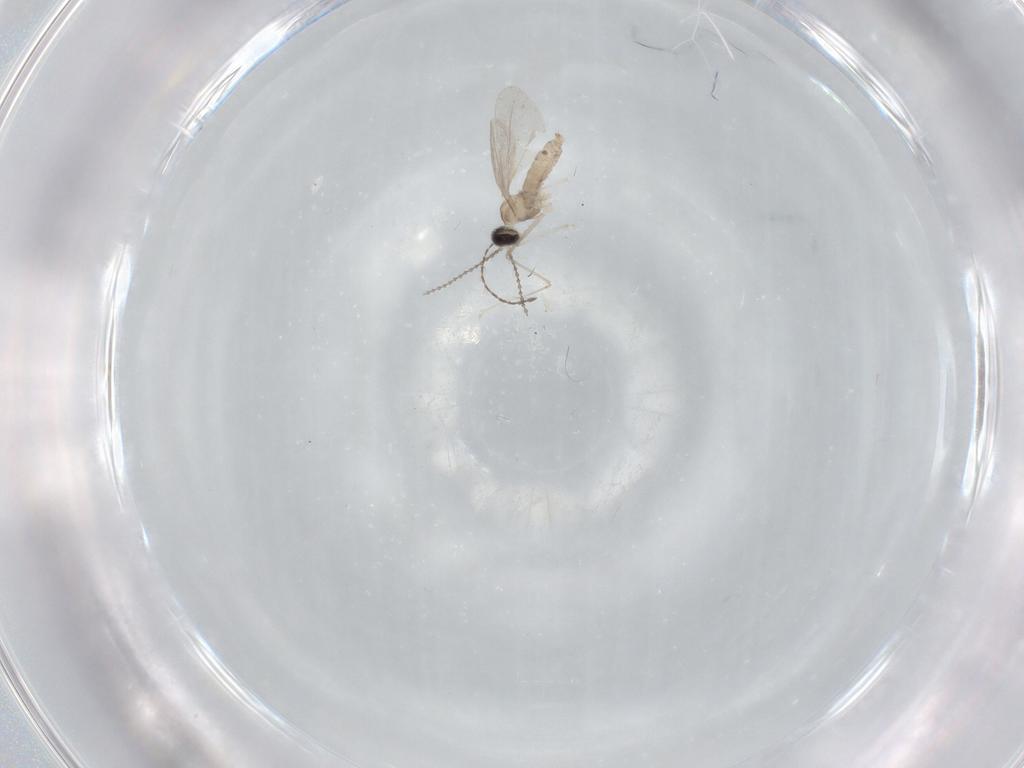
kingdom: Animalia
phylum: Arthropoda
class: Insecta
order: Diptera
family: Cecidomyiidae
